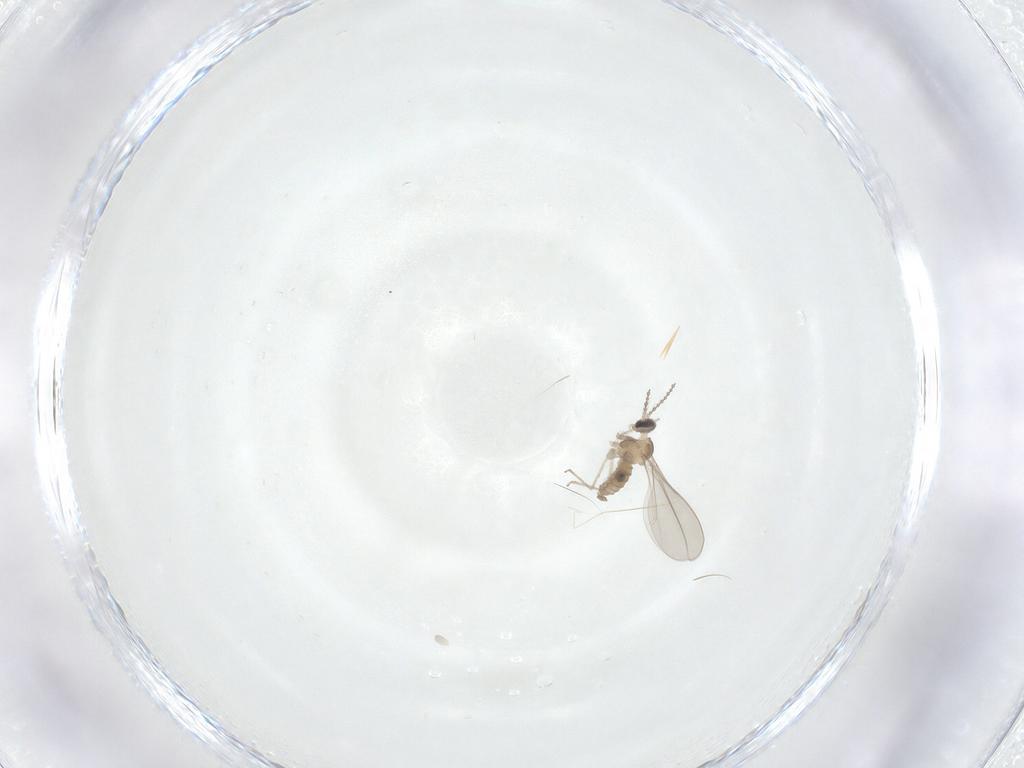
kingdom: Animalia
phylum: Arthropoda
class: Insecta
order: Diptera
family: Cecidomyiidae
